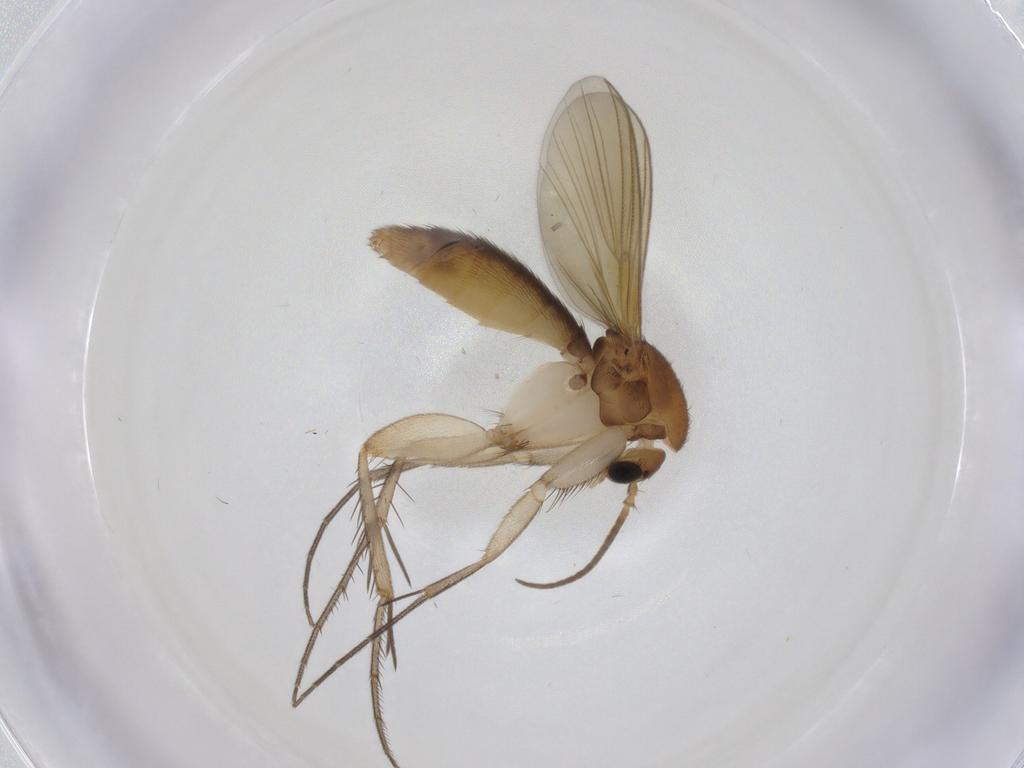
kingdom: Animalia
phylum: Arthropoda
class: Insecta
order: Diptera
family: Drosophilidae
